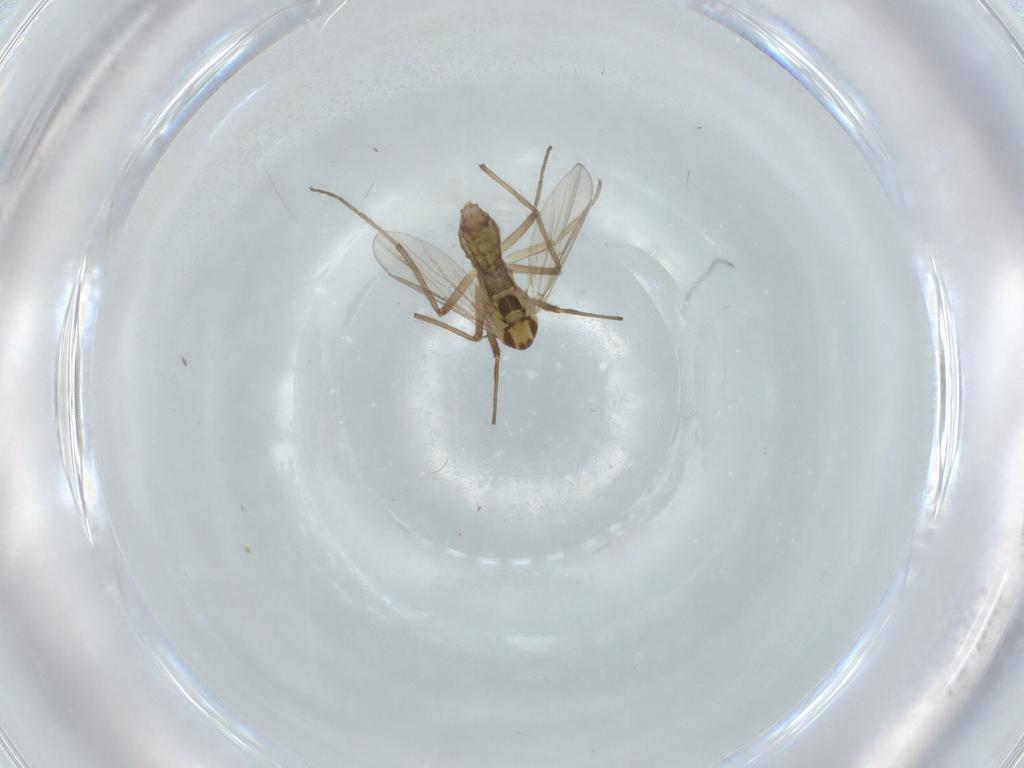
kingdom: Animalia
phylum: Arthropoda
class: Insecta
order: Diptera
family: Chironomidae
